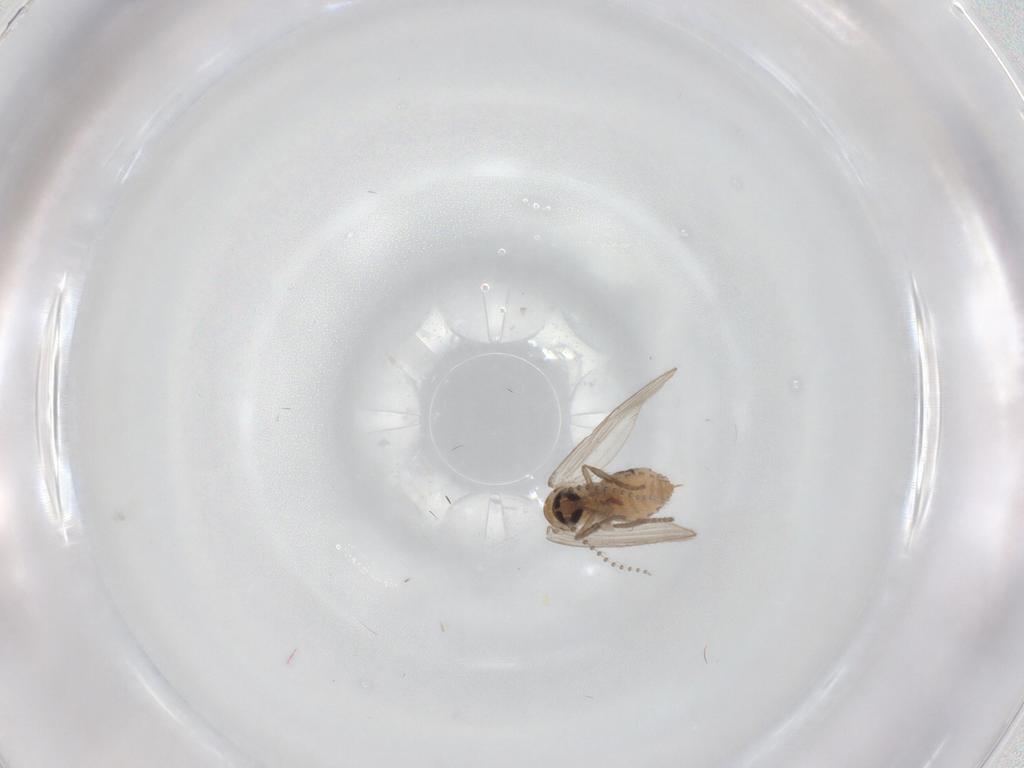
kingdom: Animalia
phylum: Arthropoda
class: Insecta
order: Diptera
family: Psychodidae
